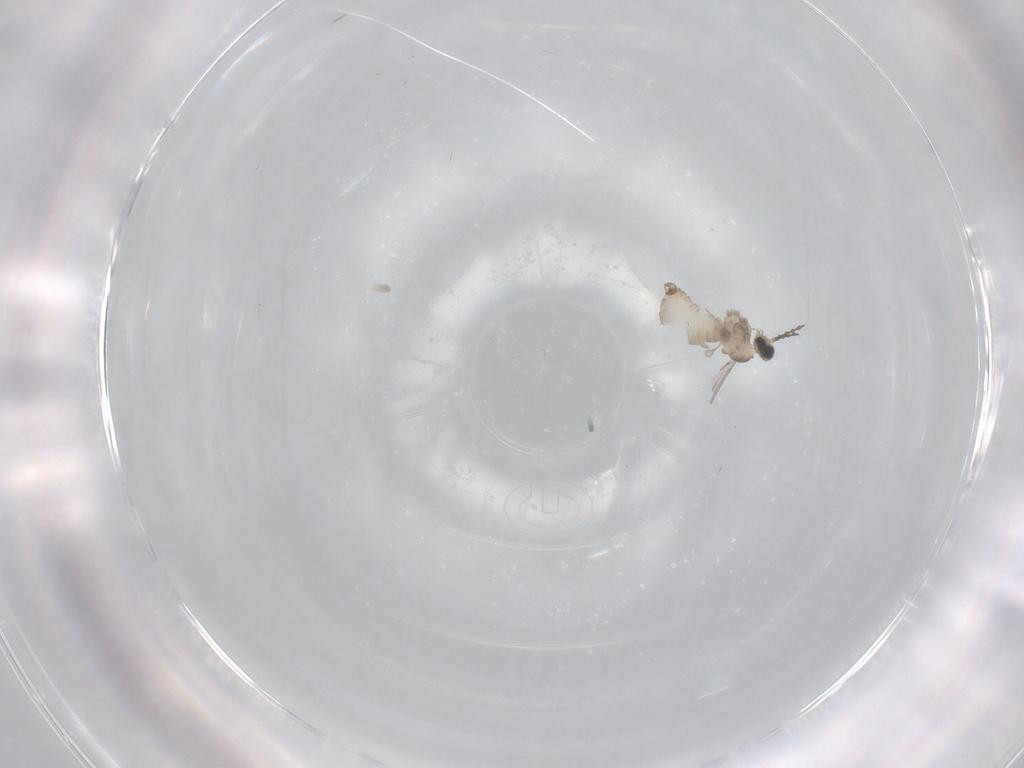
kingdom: Animalia
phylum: Arthropoda
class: Insecta
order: Diptera
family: Cecidomyiidae
